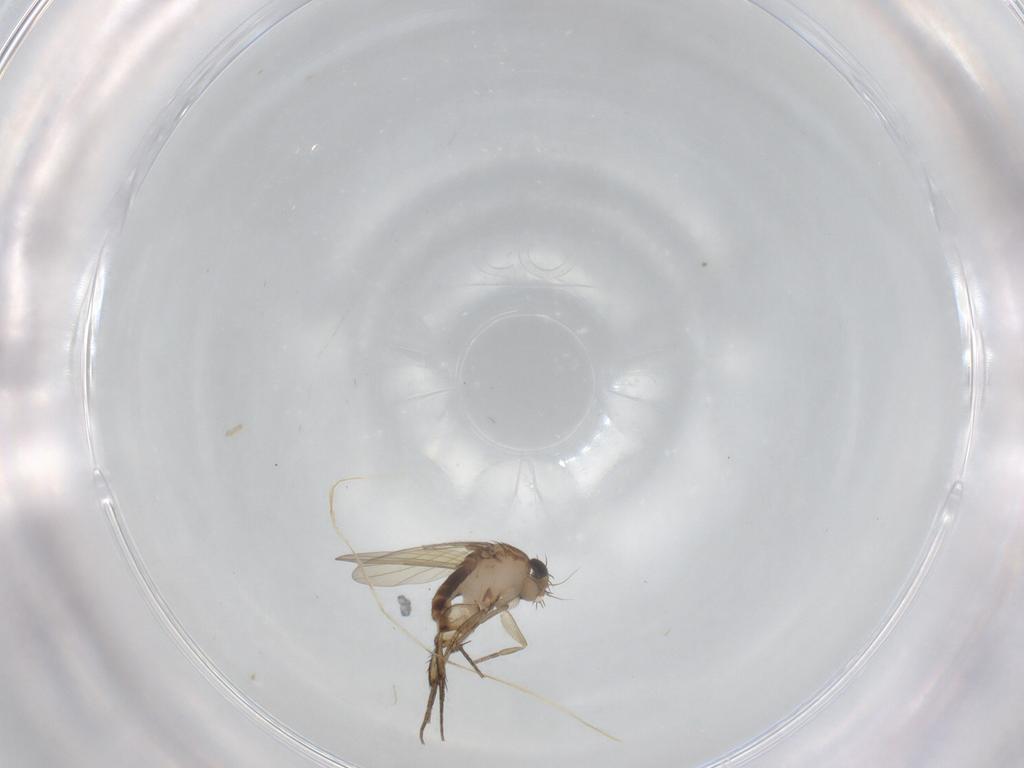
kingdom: Animalia
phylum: Arthropoda
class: Insecta
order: Diptera
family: Phoridae
